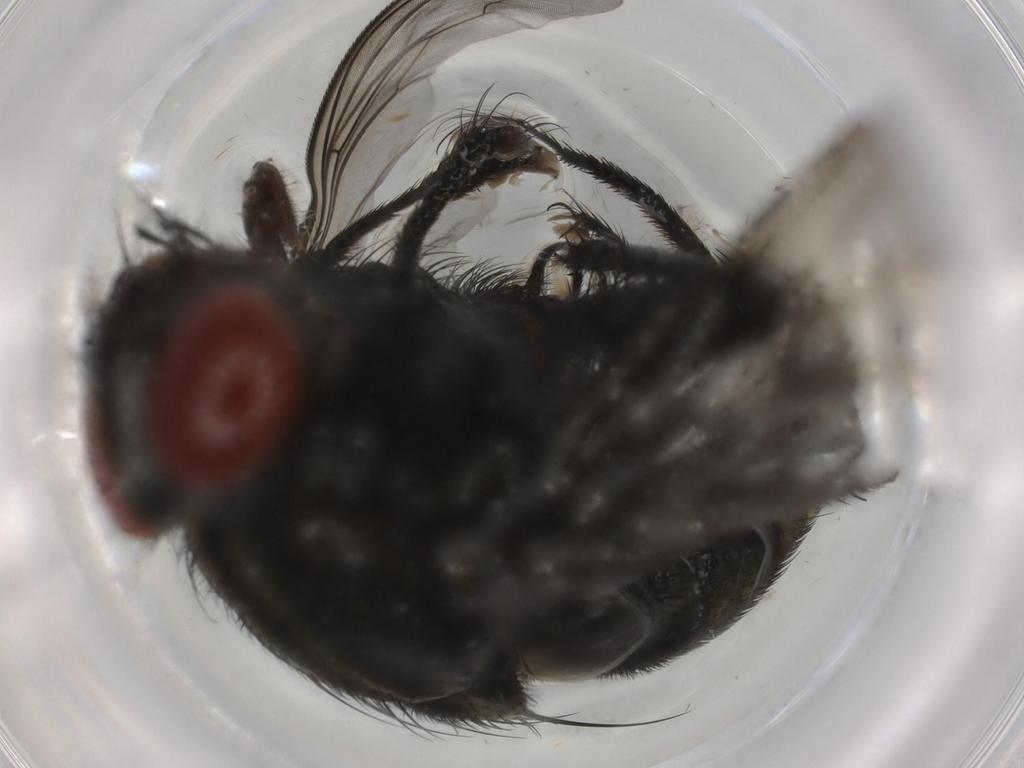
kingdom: Animalia
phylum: Arthropoda
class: Insecta
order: Diptera
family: Sarcophagidae
